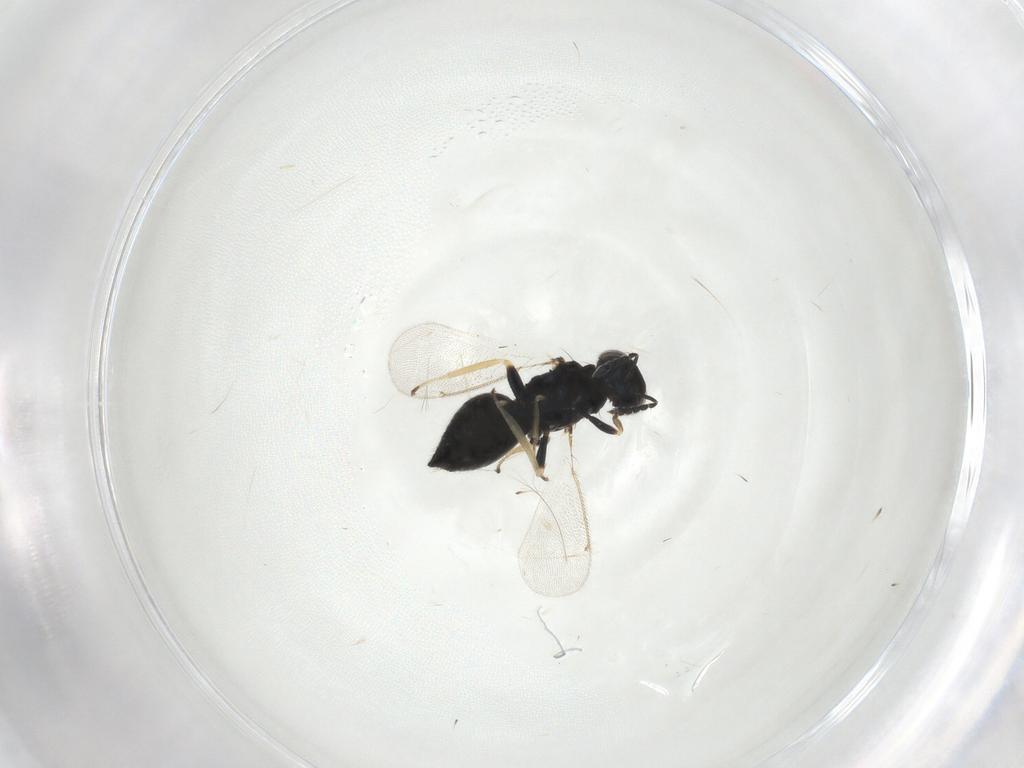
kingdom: Animalia
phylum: Arthropoda
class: Insecta
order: Hymenoptera
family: Eulophidae
